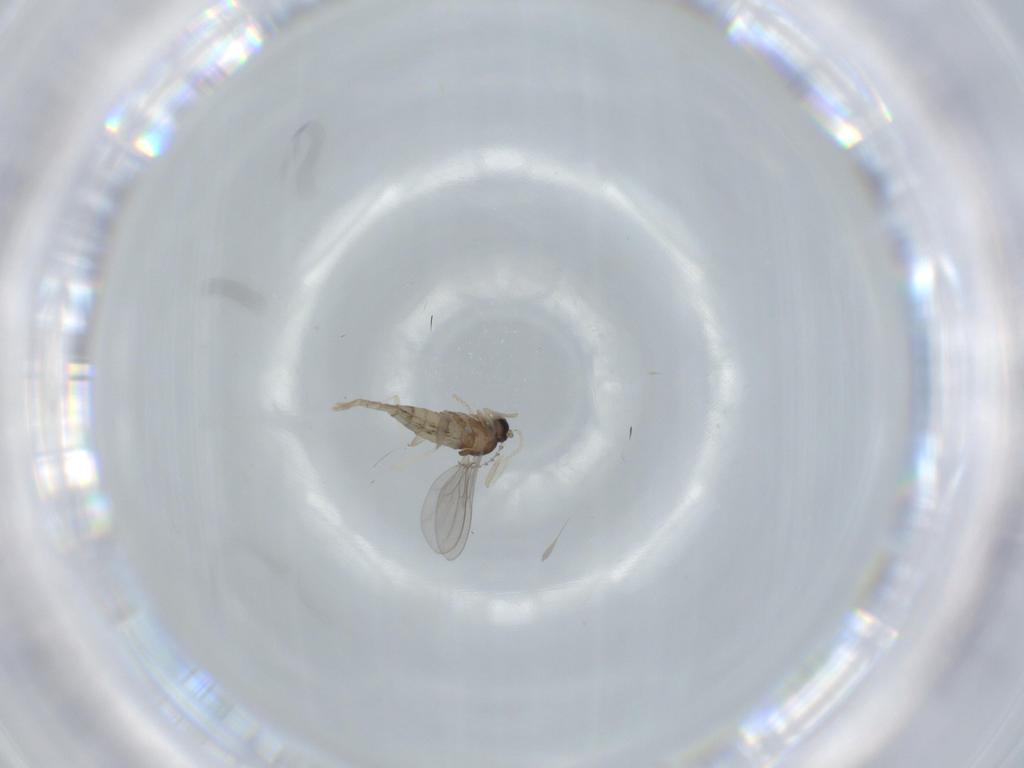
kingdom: Animalia
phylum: Arthropoda
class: Insecta
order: Diptera
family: Cecidomyiidae
